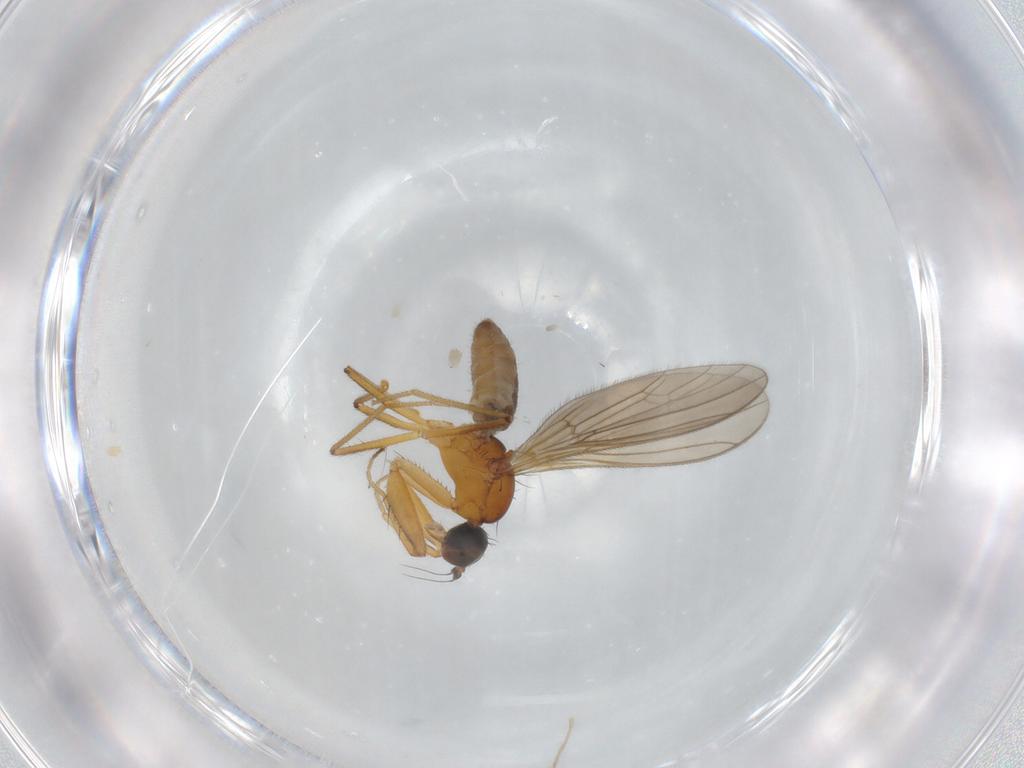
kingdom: Animalia
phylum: Arthropoda
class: Insecta
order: Diptera
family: Empididae
